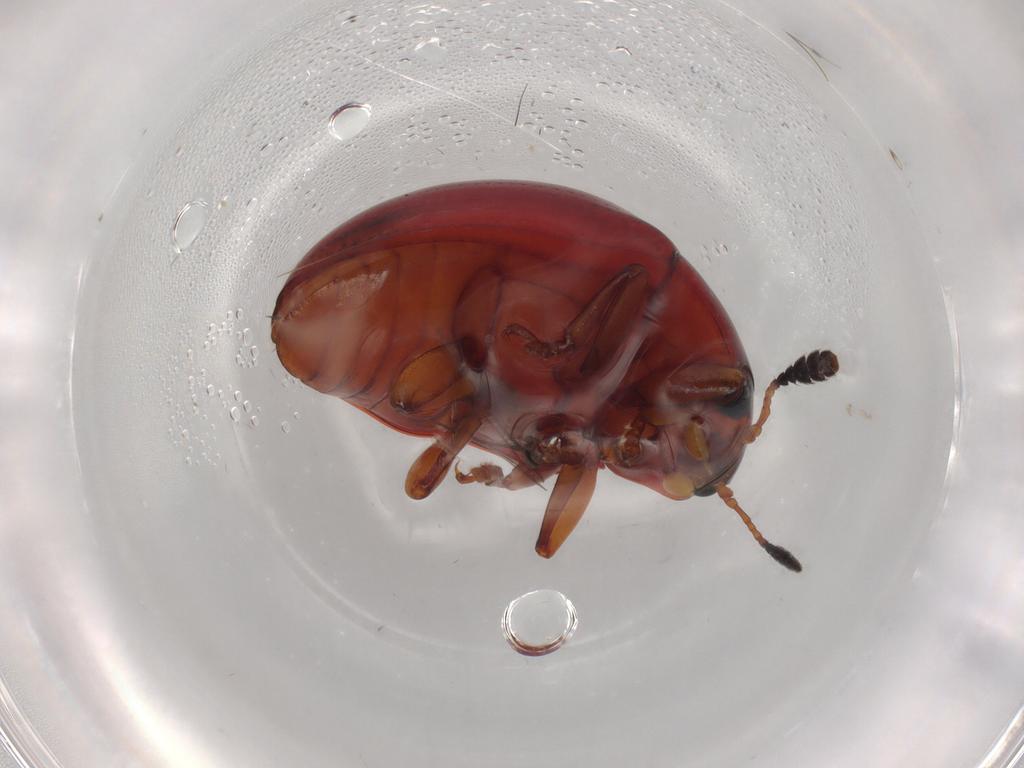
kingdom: Animalia
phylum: Arthropoda
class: Insecta
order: Coleoptera
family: Erotylidae
